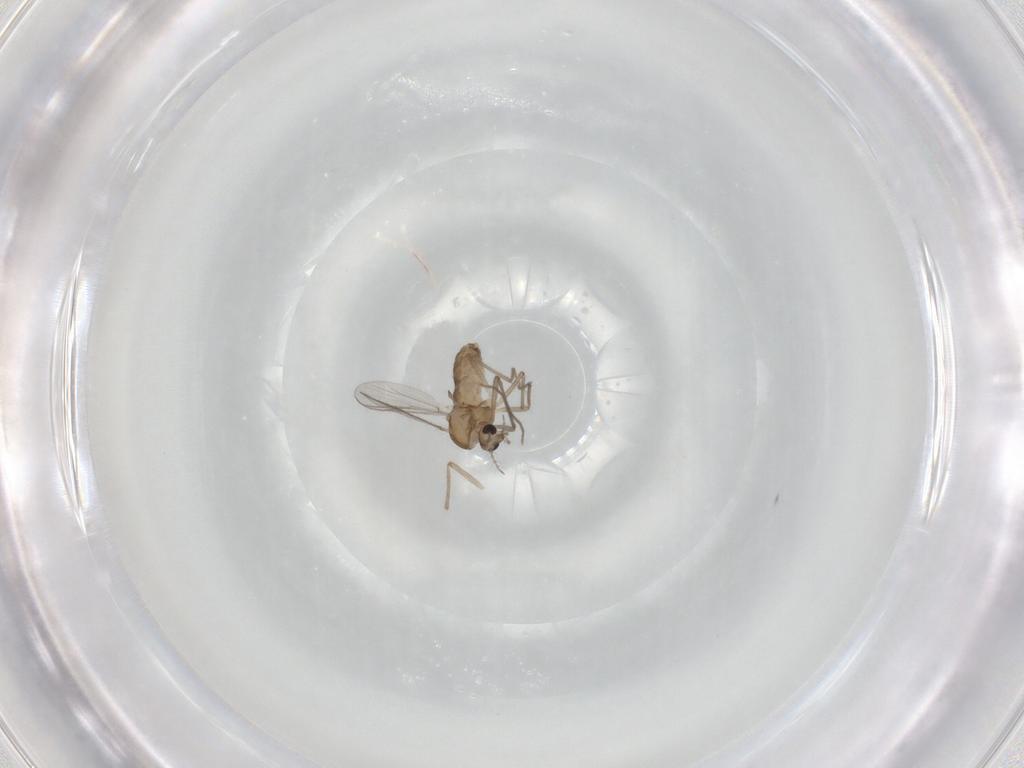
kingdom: Animalia
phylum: Arthropoda
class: Insecta
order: Diptera
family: Chironomidae
